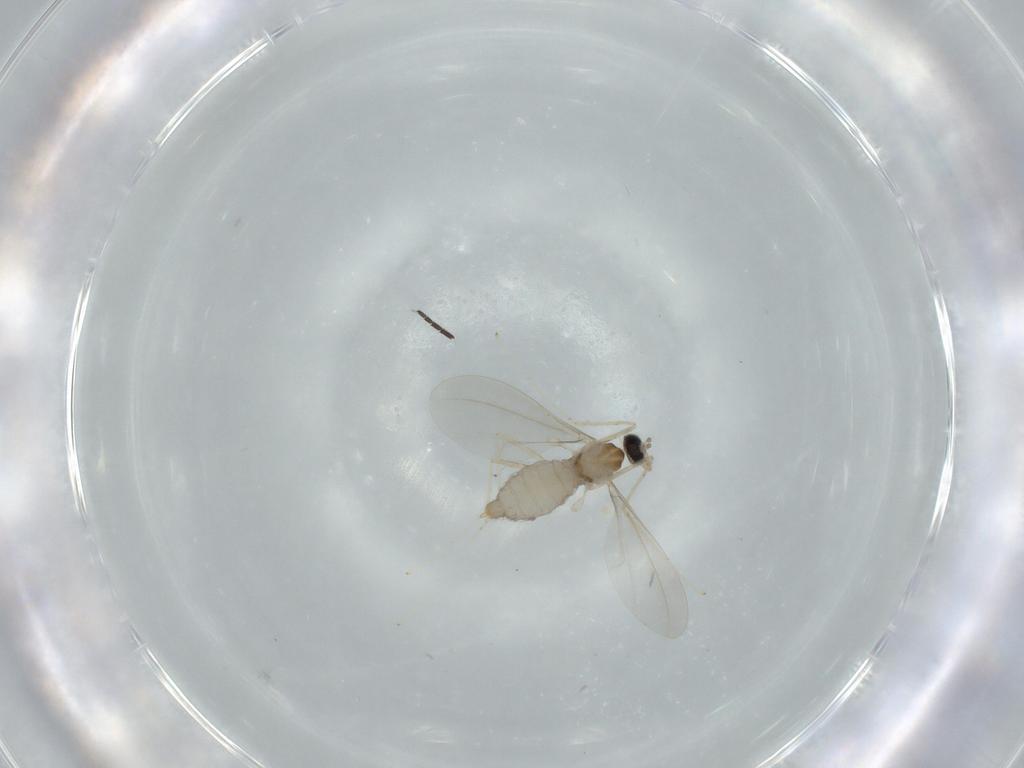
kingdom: Animalia
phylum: Arthropoda
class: Insecta
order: Diptera
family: Cecidomyiidae
